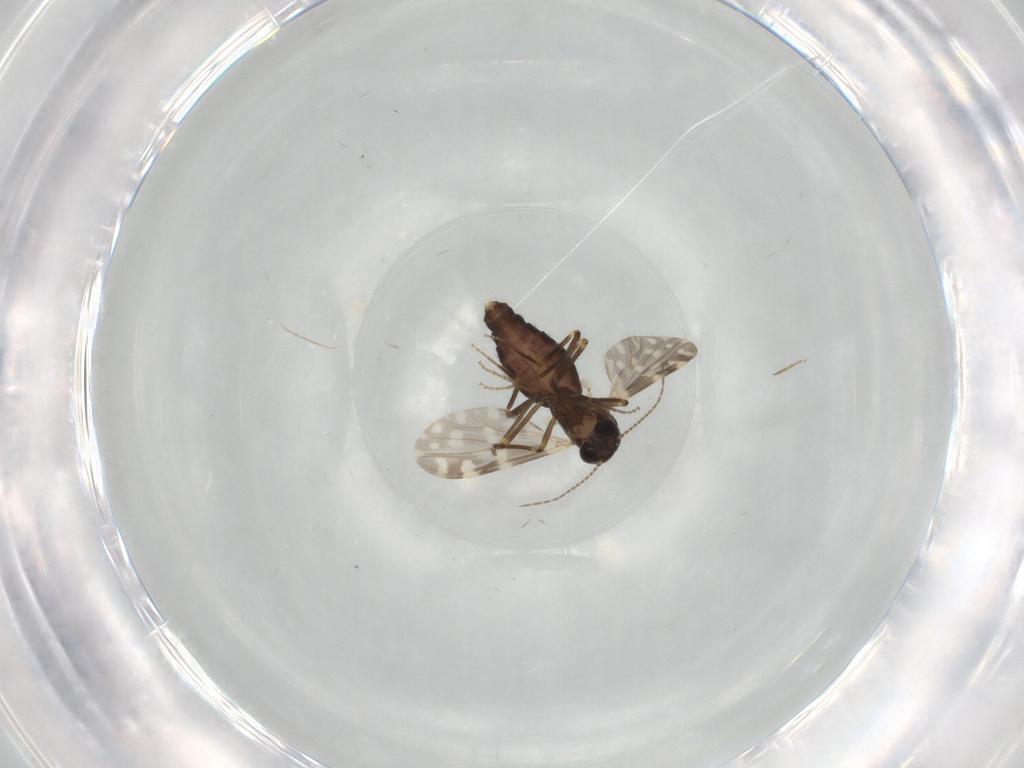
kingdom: Animalia
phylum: Arthropoda
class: Insecta
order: Diptera
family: Ceratopogonidae
